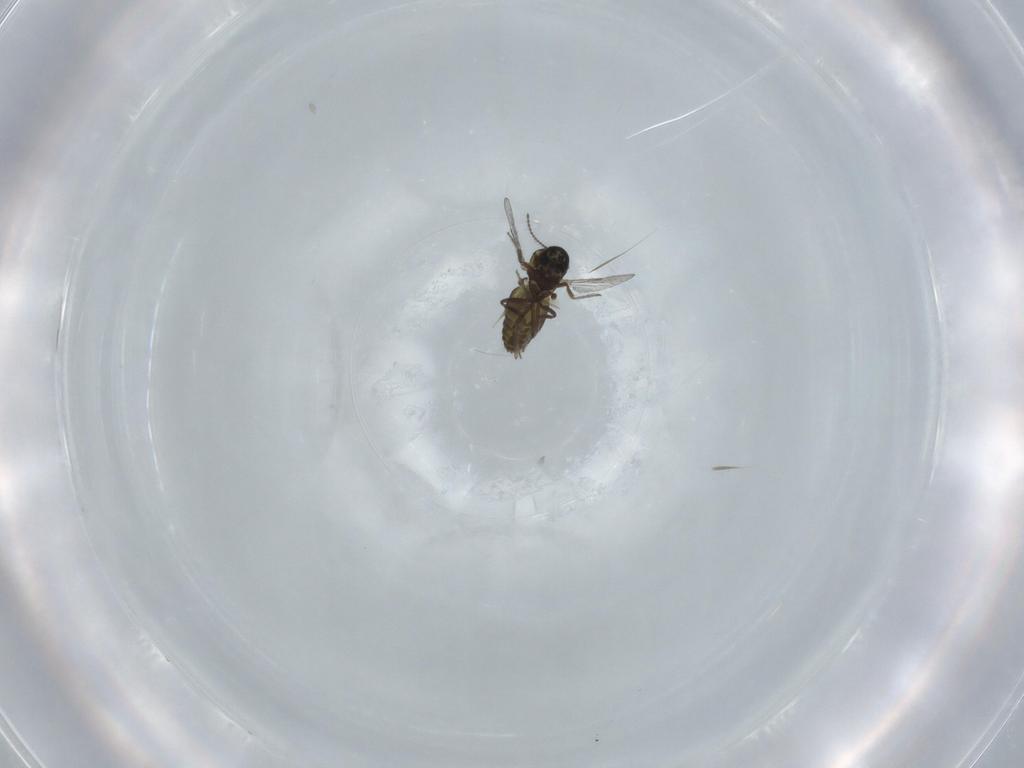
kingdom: Animalia
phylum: Arthropoda
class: Insecta
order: Diptera
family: Ceratopogonidae
